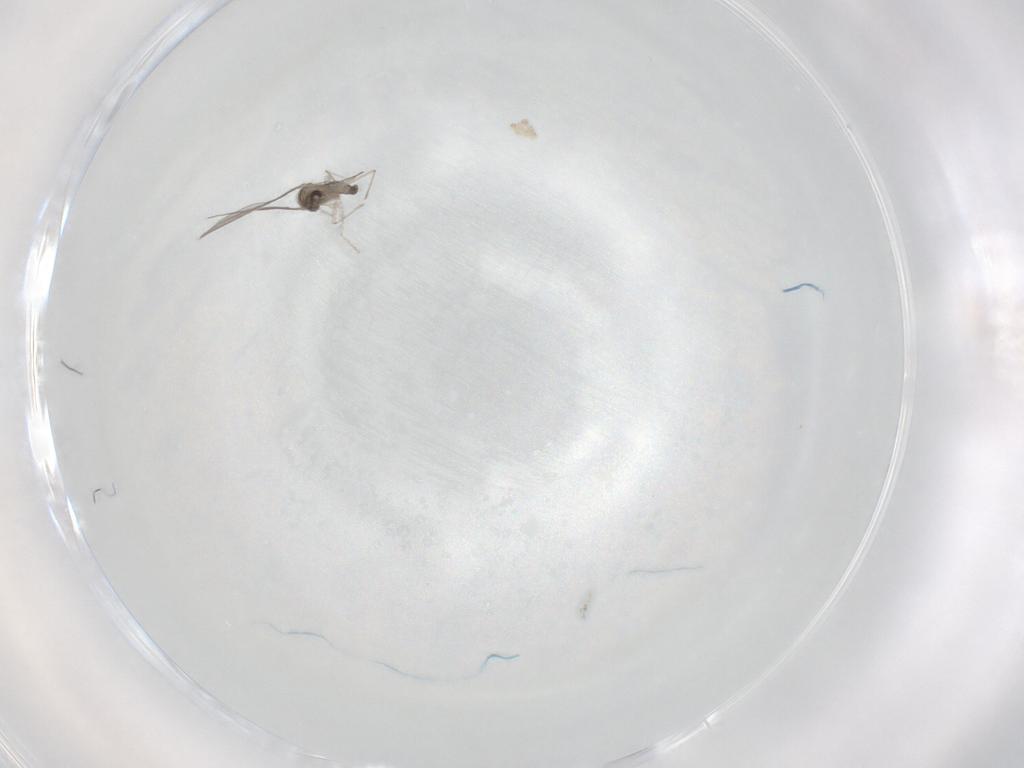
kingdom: Animalia
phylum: Arthropoda
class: Insecta
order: Diptera
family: Cecidomyiidae
